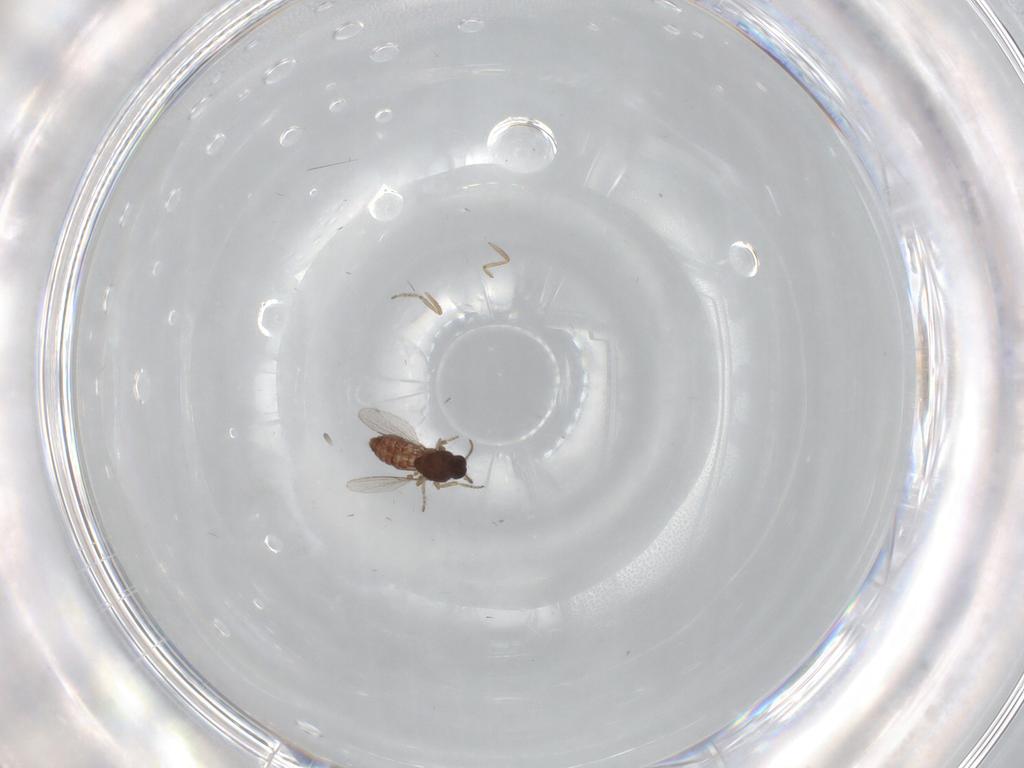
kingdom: Animalia
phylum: Arthropoda
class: Insecta
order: Diptera
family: Ceratopogonidae
